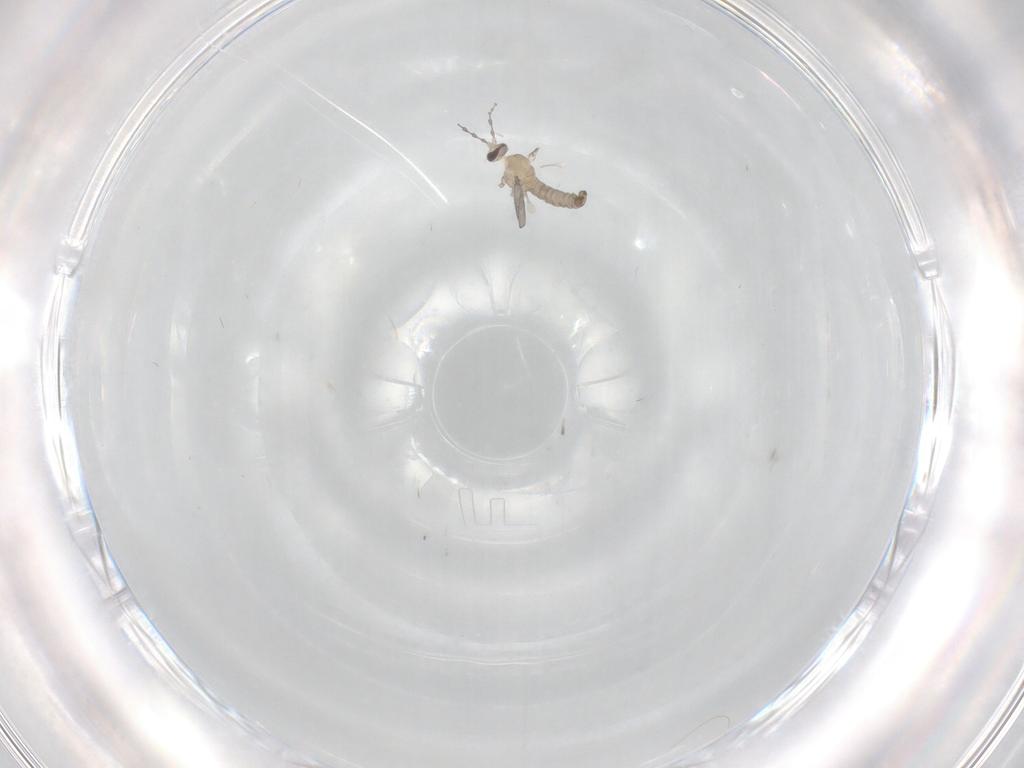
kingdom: Animalia
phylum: Arthropoda
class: Insecta
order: Diptera
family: Cecidomyiidae
